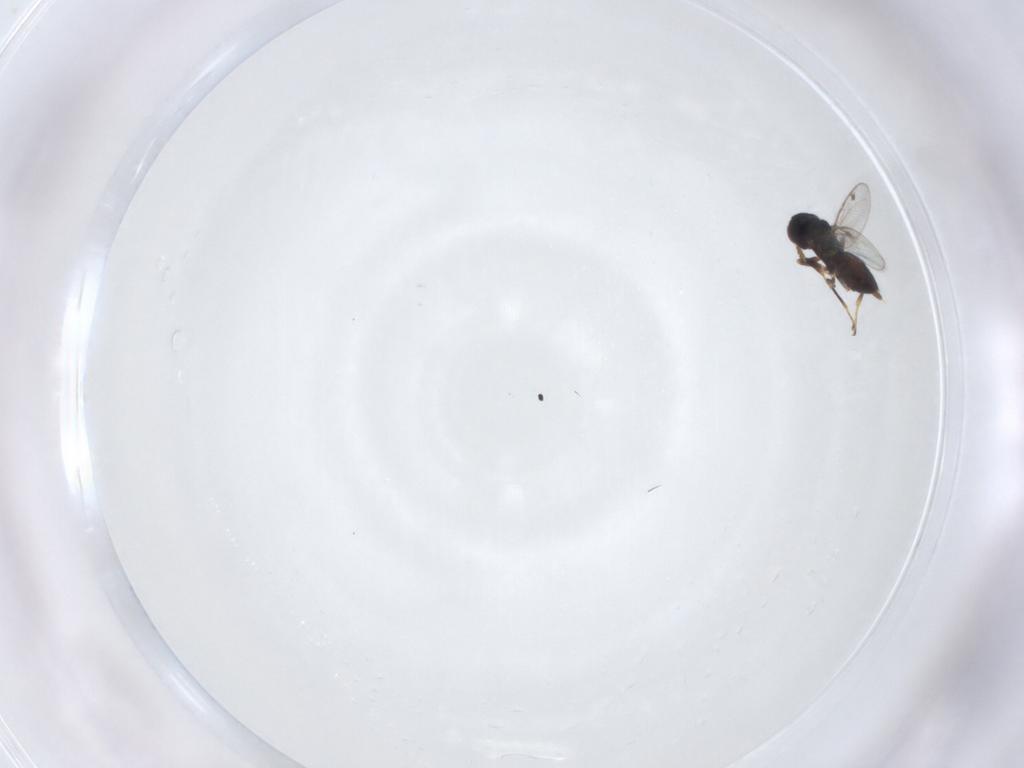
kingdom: Animalia
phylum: Arthropoda
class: Insecta
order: Hymenoptera
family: Pirenidae
